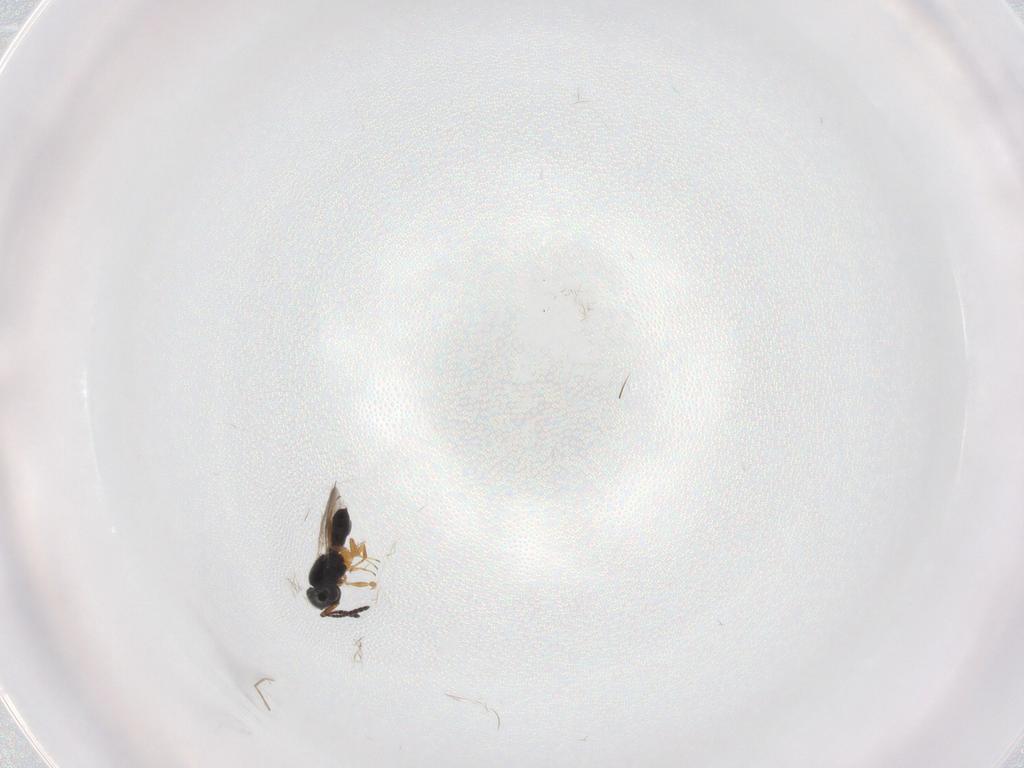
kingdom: Animalia
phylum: Arthropoda
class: Insecta
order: Hymenoptera
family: Scelionidae
